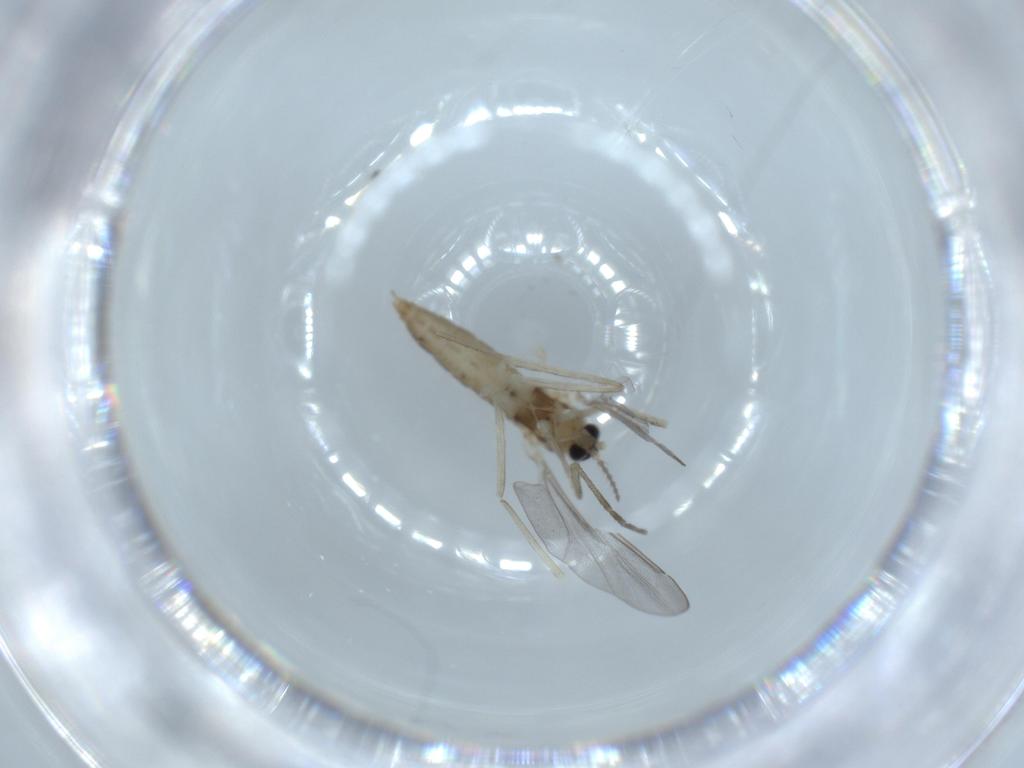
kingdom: Animalia
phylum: Arthropoda
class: Insecta
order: Diptera
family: Cecidomyiidae
